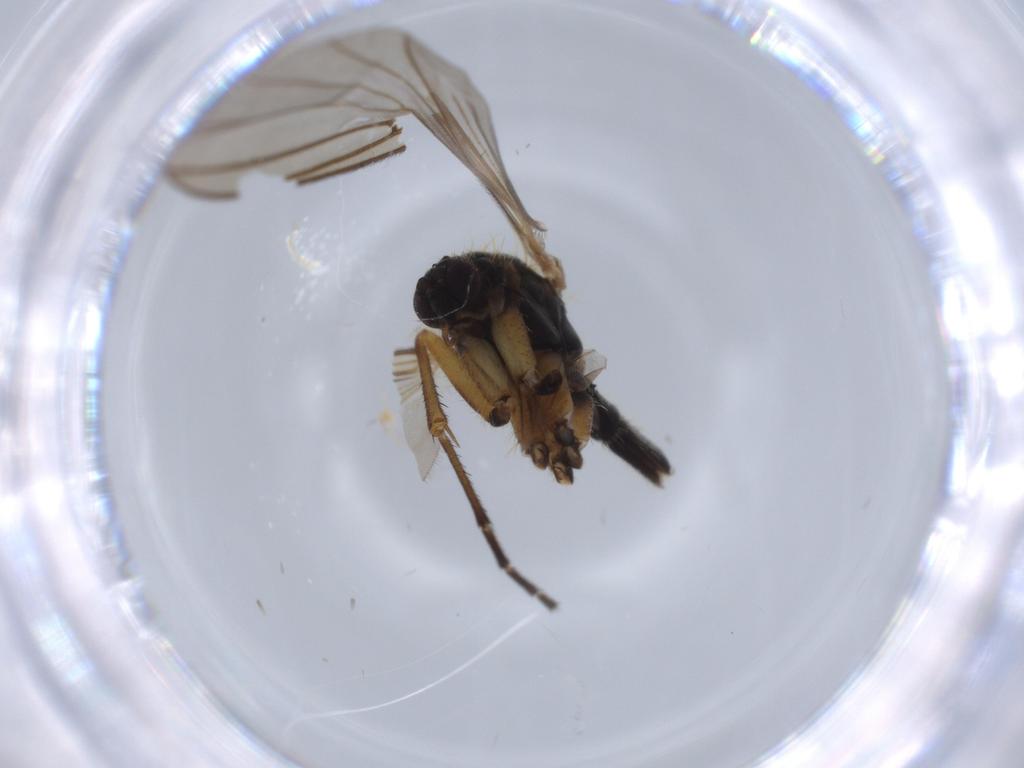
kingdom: Animalia
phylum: Arthropoda
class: Insecta
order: Diptera
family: Syrphidae
